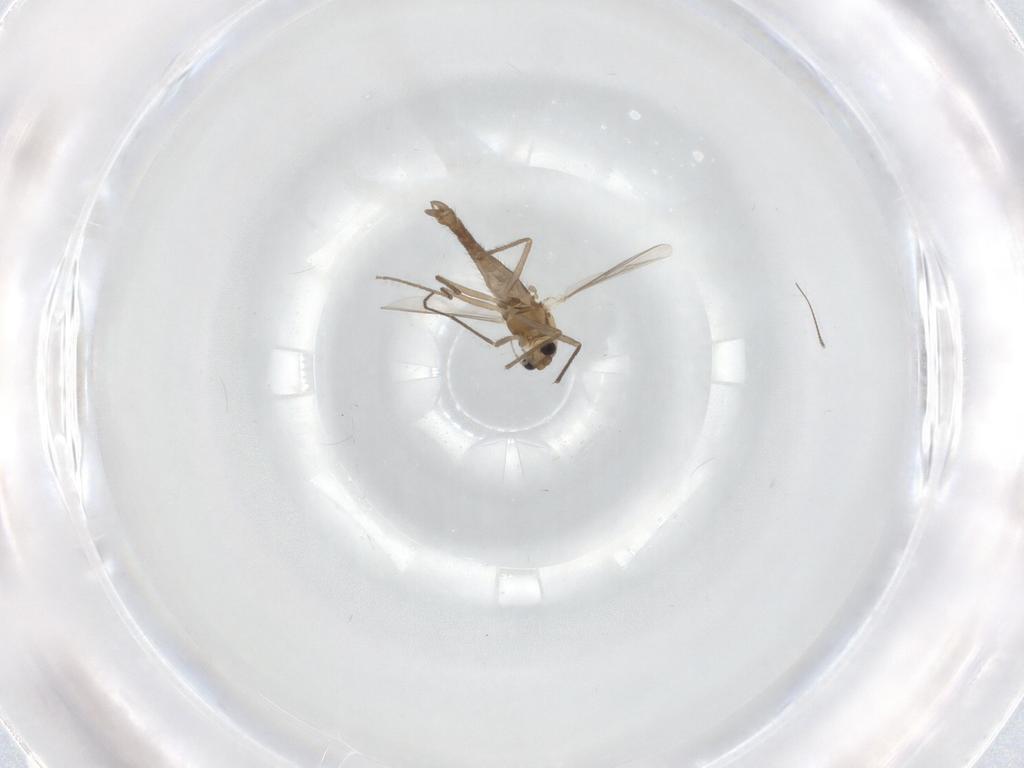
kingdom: Animalia
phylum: Arthropoda
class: Insecta
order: Diptera
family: Chironomidae
